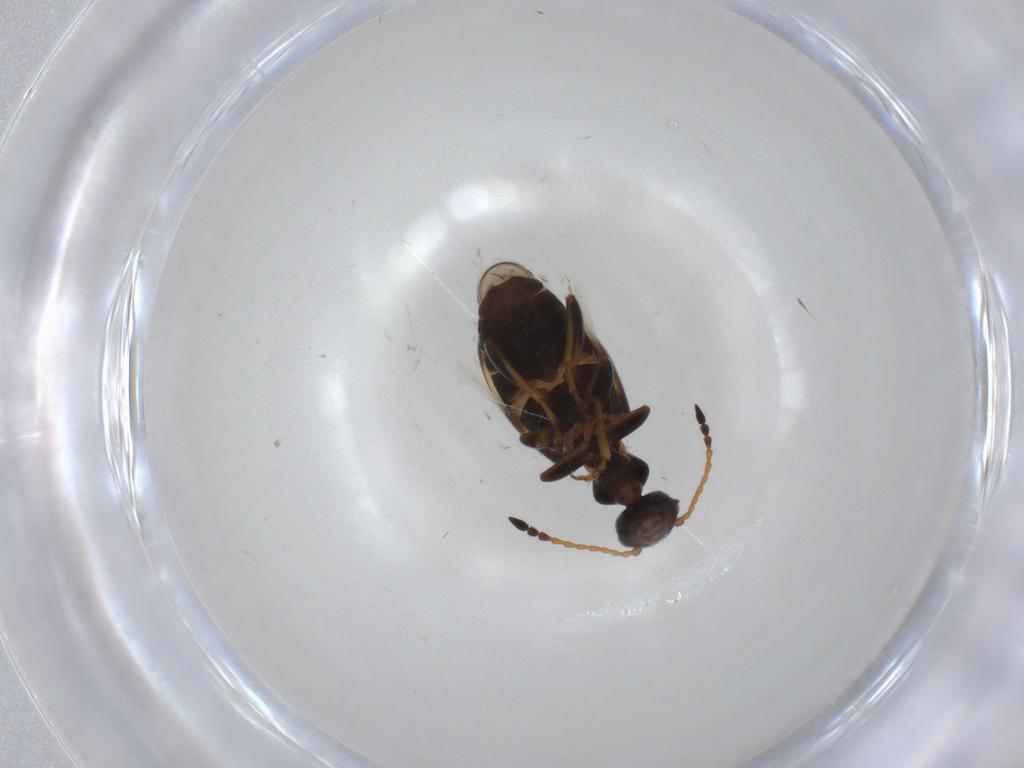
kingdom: Animalia
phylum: Arthropoda
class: Insecta
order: Coleoptera
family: Anthicidae
